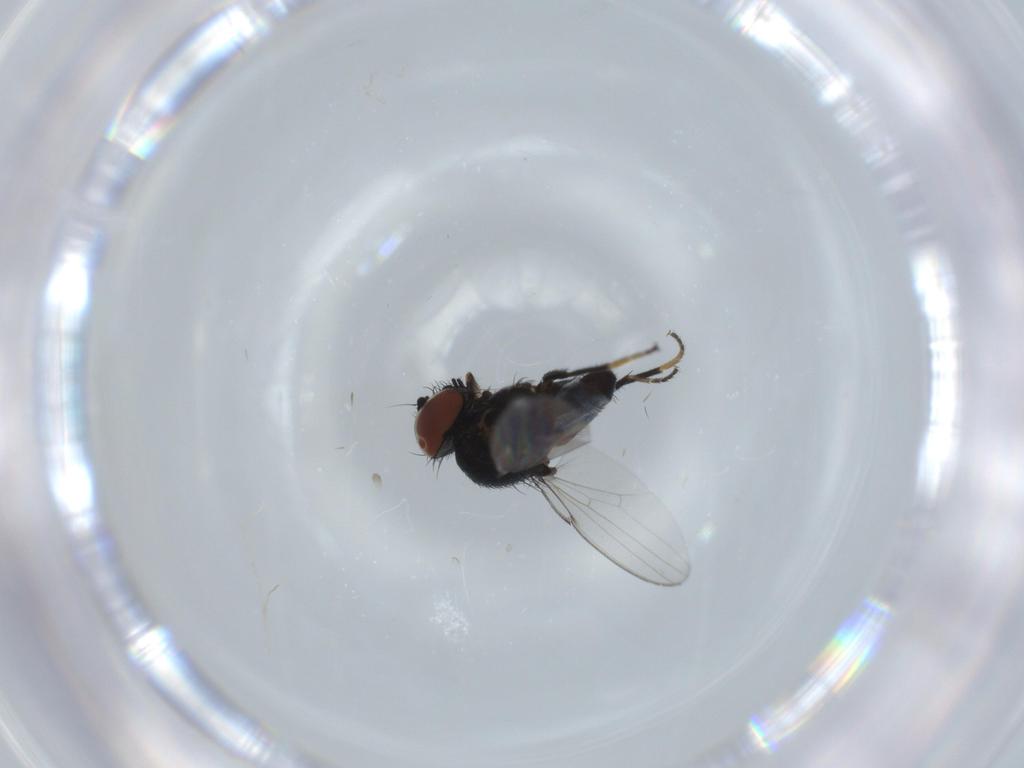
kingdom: Animalia
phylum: Arthropoda
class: Insecta
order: Diptera
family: Milichiidae
